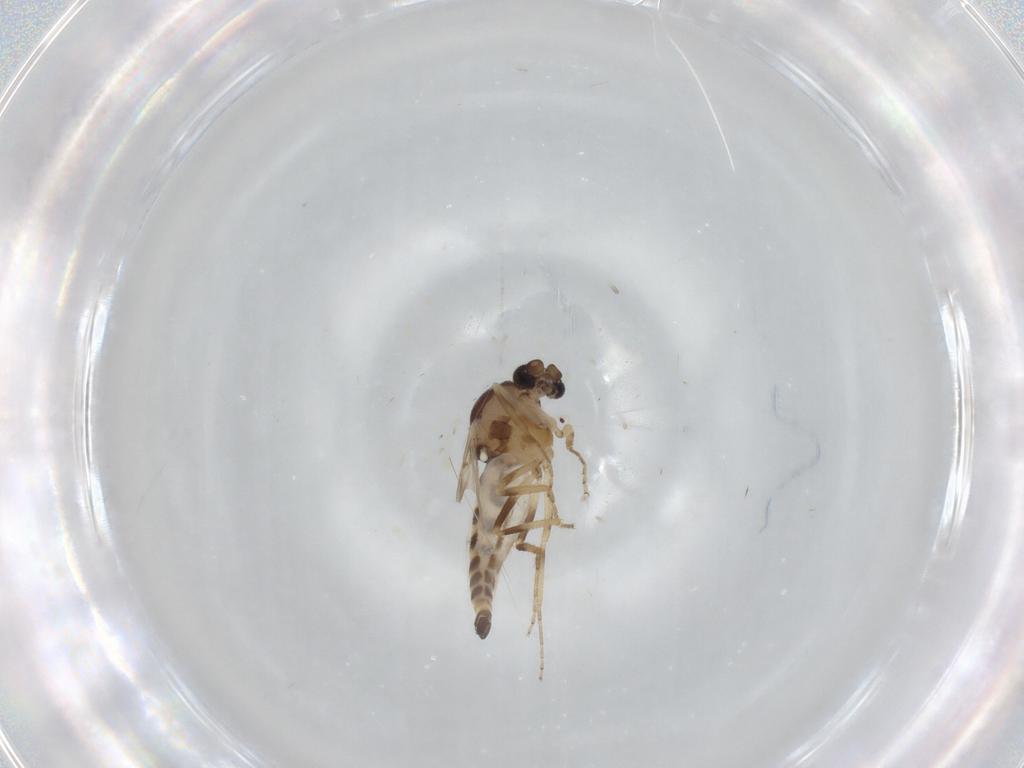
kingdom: Animalia
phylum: Arthropoda
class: Insecta
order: Diptera
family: Ceratopogonidae
